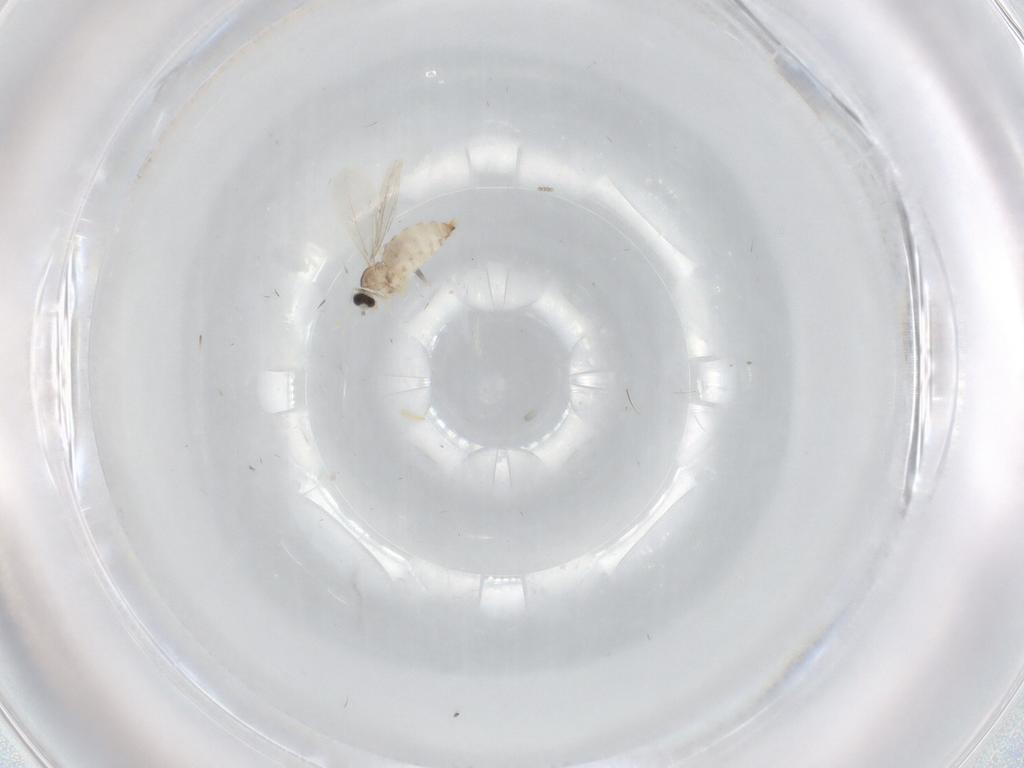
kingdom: Animalia
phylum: Arthropoda
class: Insecta
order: Diptera
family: Cecidomyiidae
